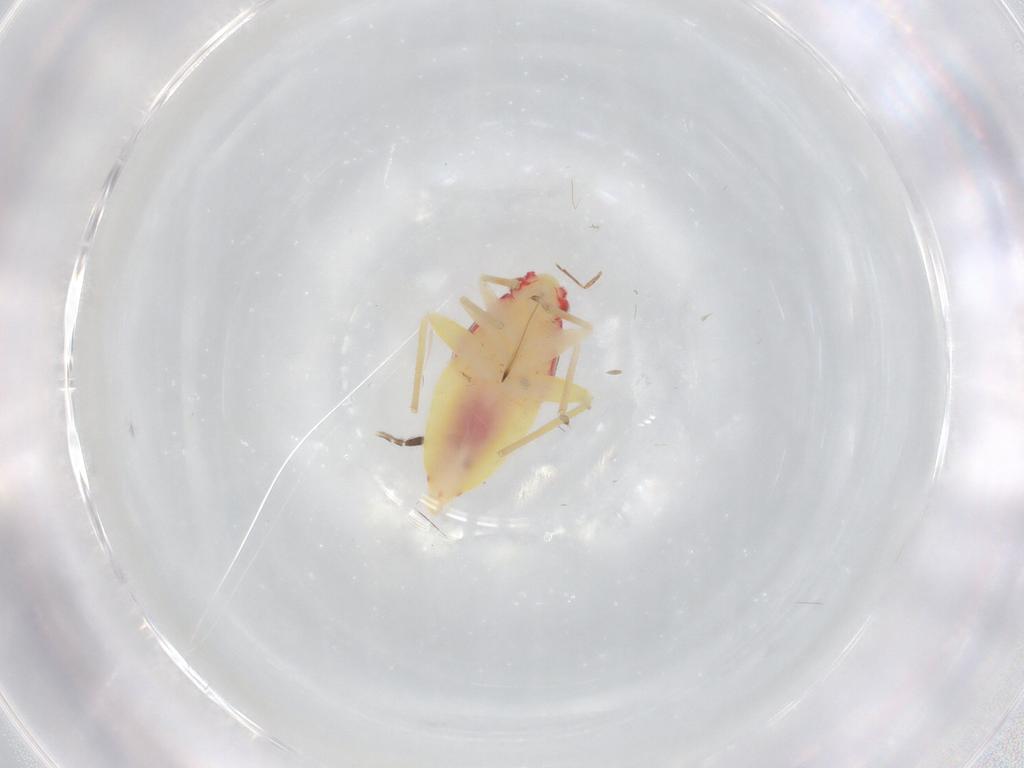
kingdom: Animalia
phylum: Arthropoda
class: Insecta
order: Hemiptera
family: Miridae
